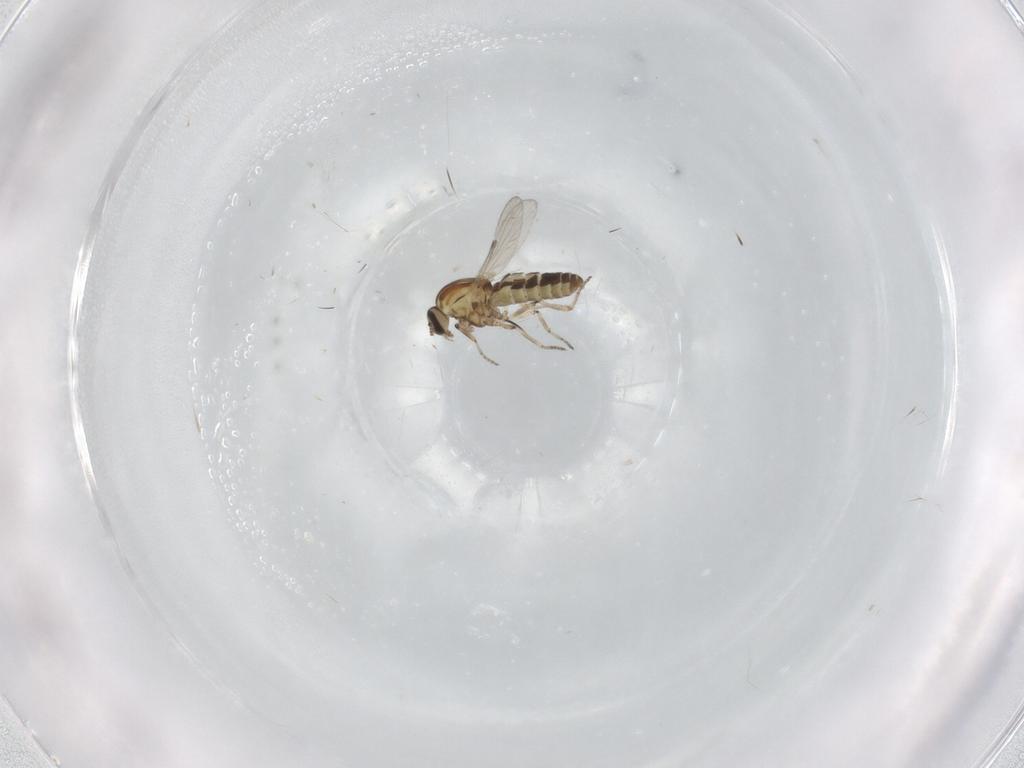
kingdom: Animalia
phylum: Arthropoda
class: Insecta
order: Diptera
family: Ceratopogonidae
